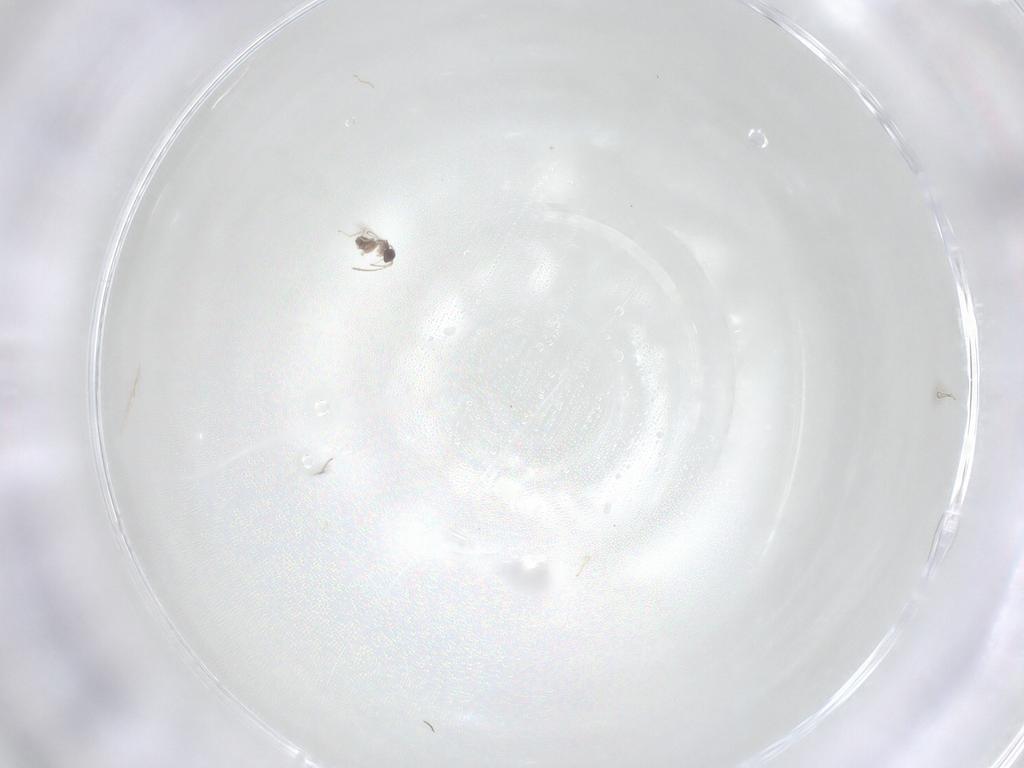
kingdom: Animalia
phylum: Arthropoda
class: Insecta
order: Hymenoptera
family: Mymaridae
